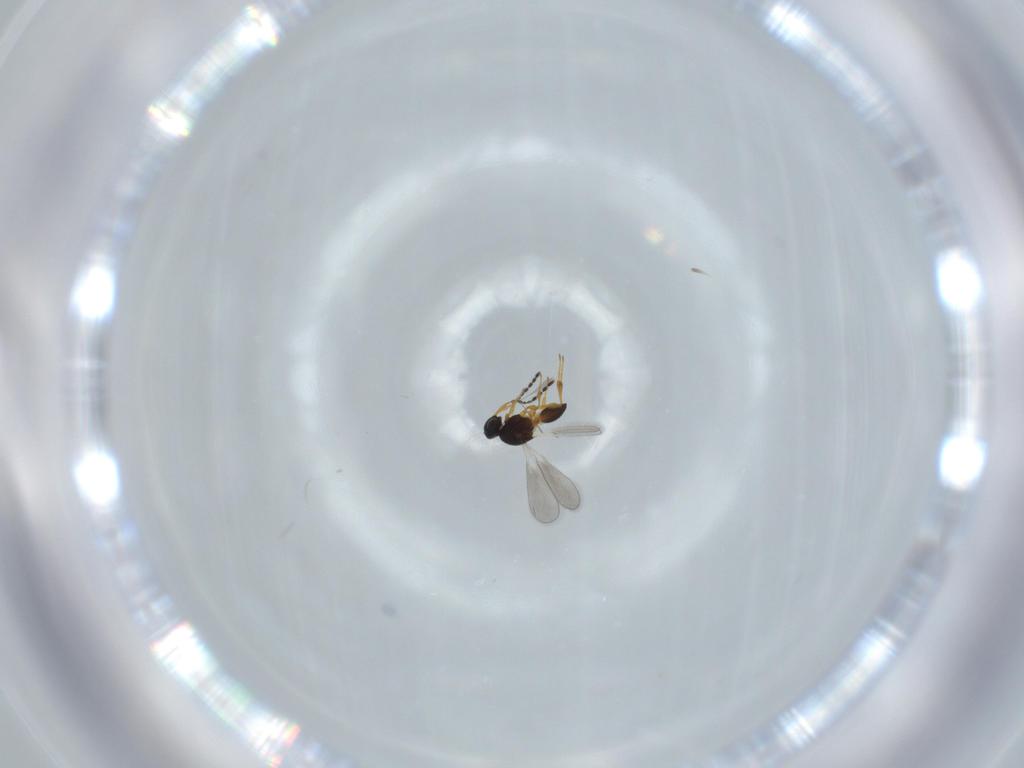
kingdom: Animalia
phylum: Arthropoda
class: Insecta
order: Hymenoptera
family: Platygastridae
